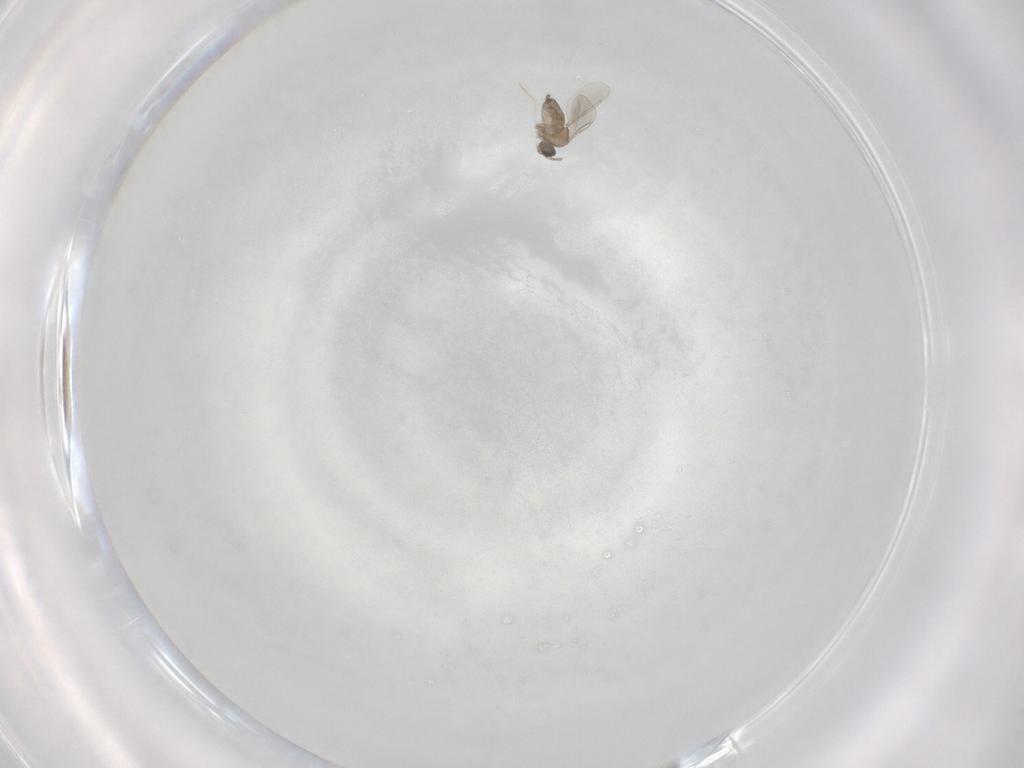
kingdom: Animalia
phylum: Arthropoda
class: Insecta
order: Diptera
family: Cecidomyiidae
